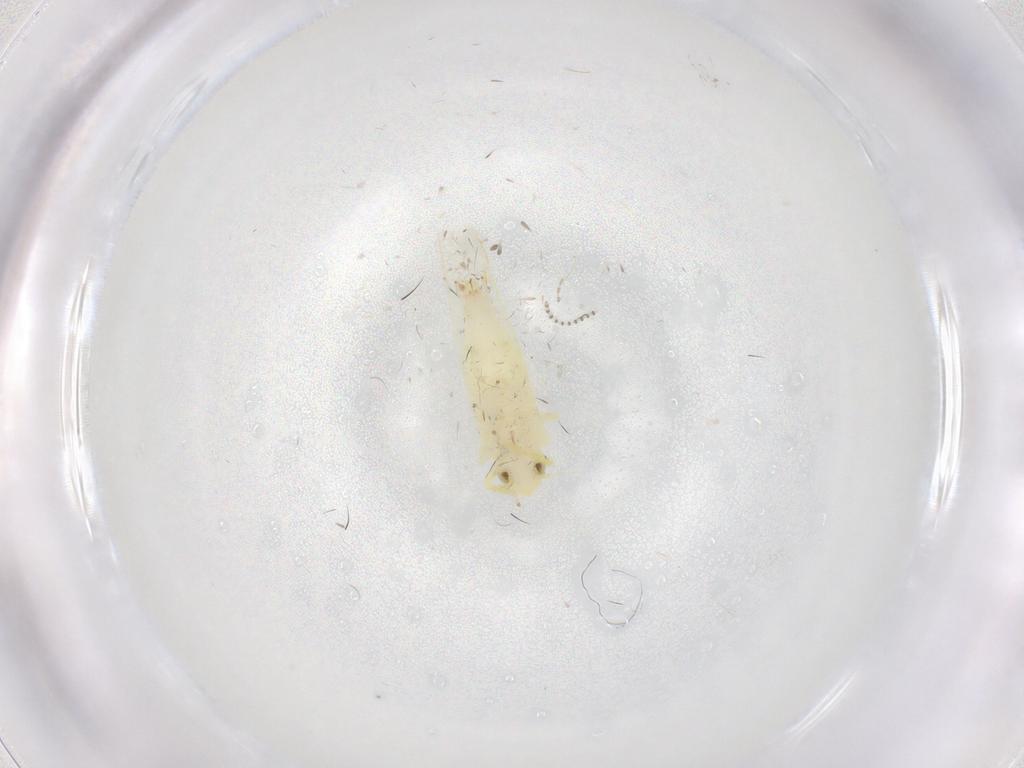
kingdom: Animalia
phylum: Arthropoda
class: Insecta
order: Hemiptera
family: Cicadellidae
